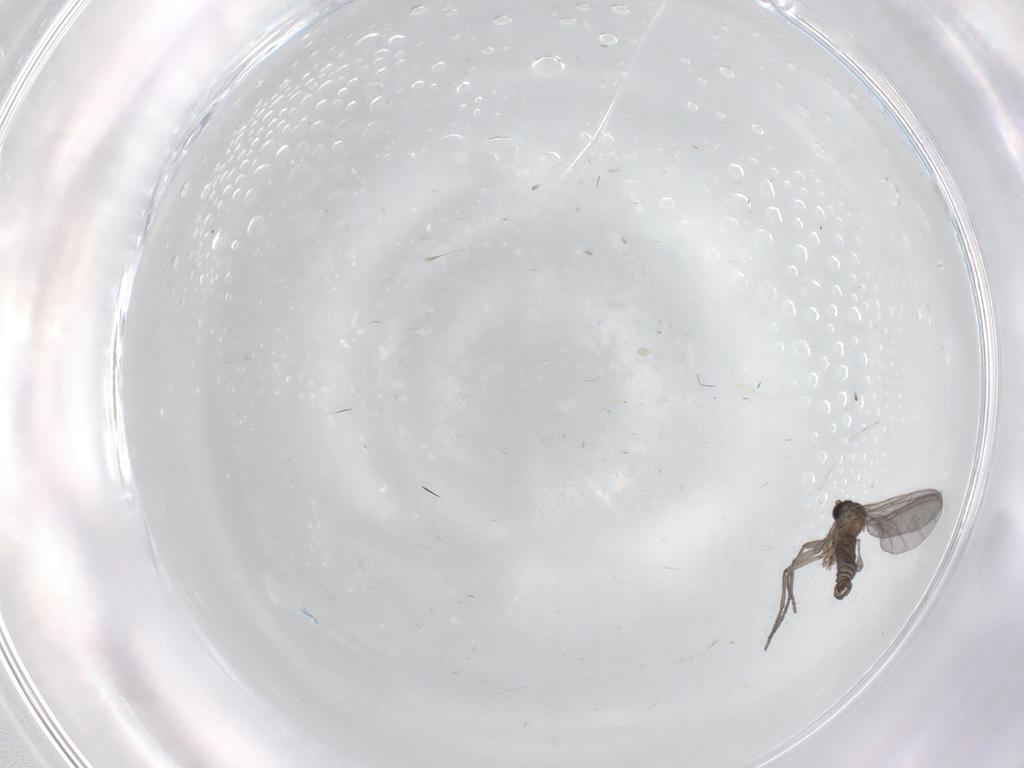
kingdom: Animalia
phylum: Arthropoda
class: Insecta
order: Diptera
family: Sciaridae
